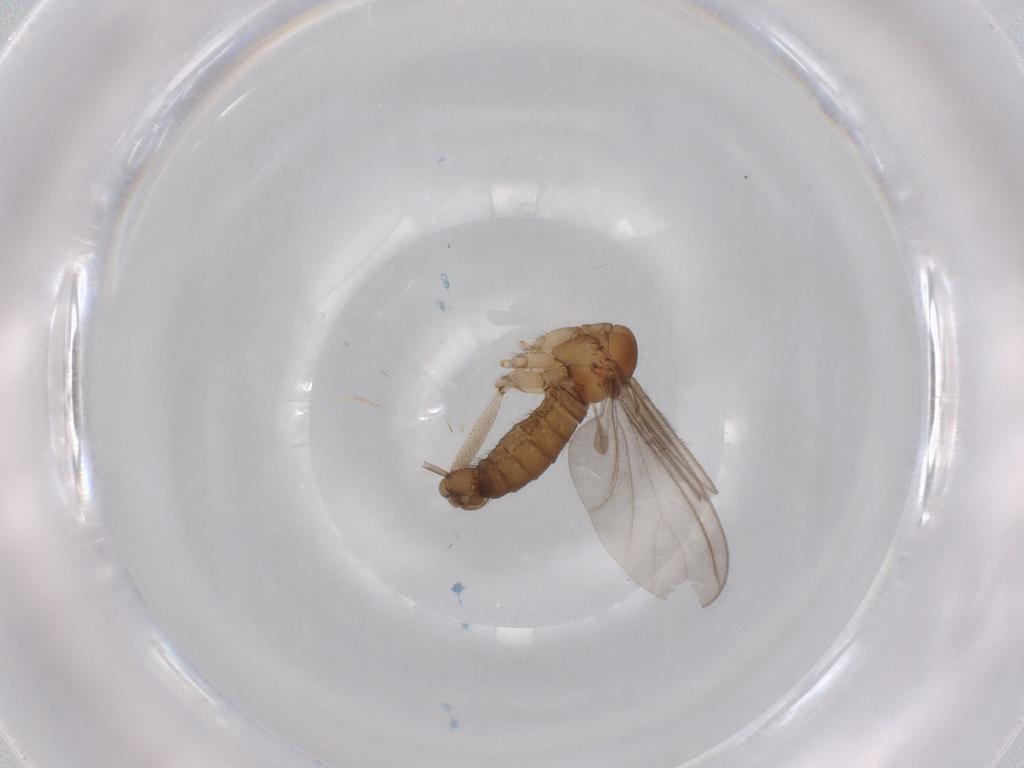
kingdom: Animalia
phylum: Arthropoda
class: Insecta
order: Diptera
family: Sciaridae
